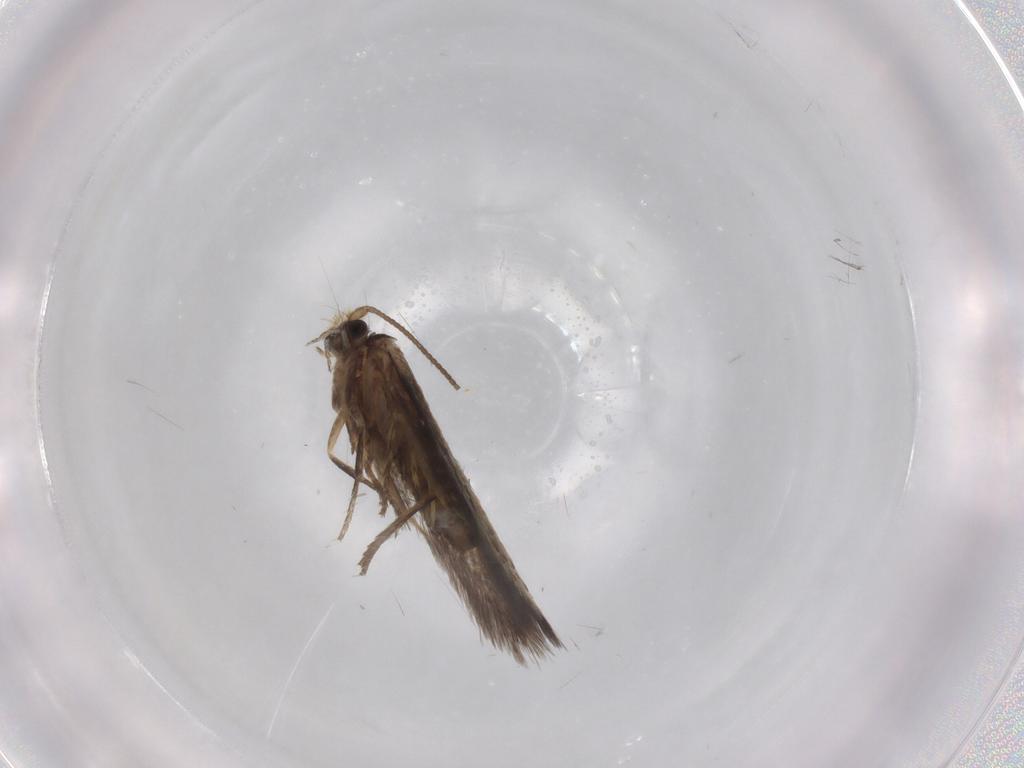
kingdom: Animalia
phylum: Arthropoda
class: Insecta
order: Lepidoptera
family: Nepticulidae
